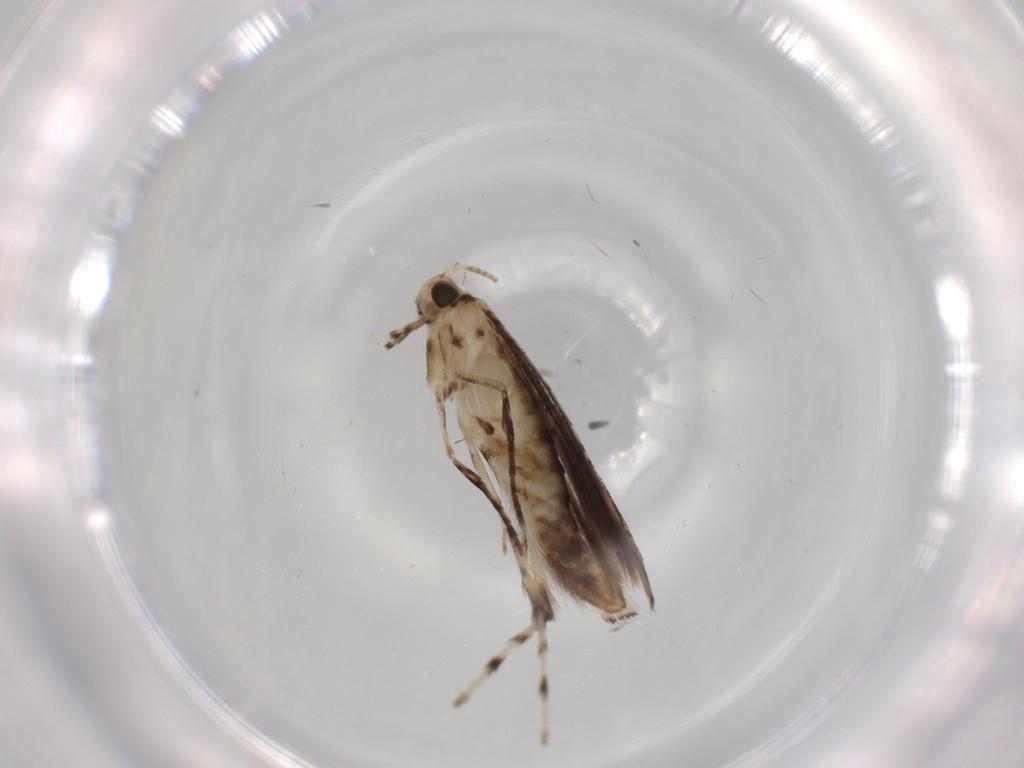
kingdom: Animalia
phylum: Arthropoda
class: Insecta
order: Lepidoptera
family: Gracillariidae
